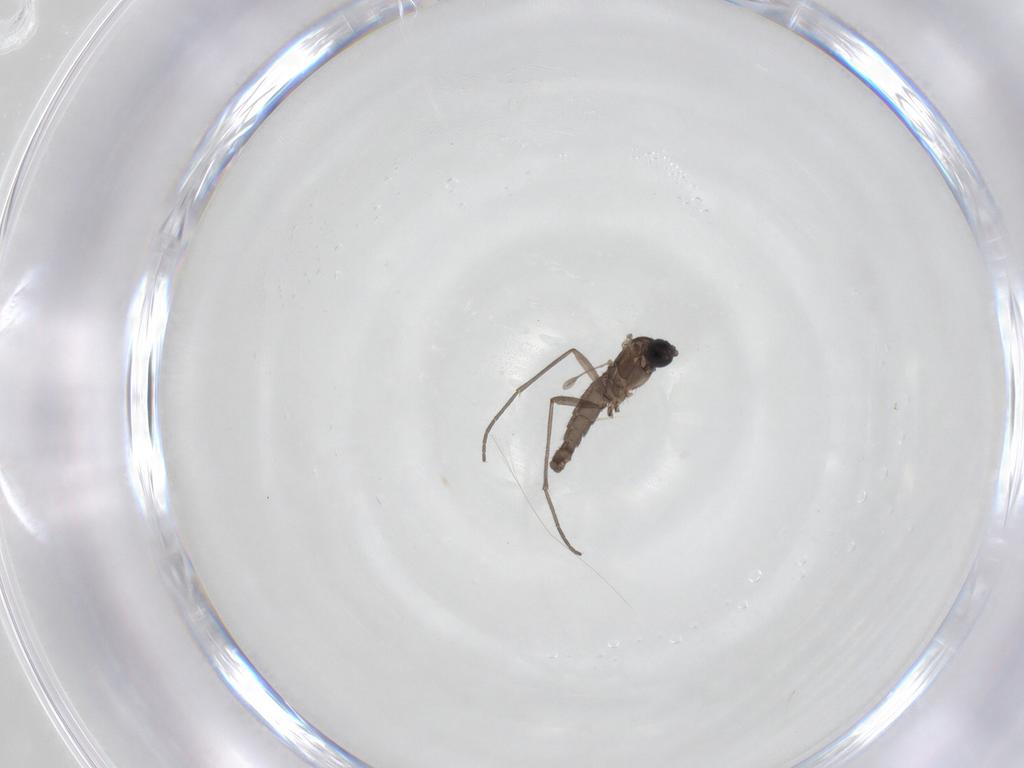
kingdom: Animalia
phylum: Arthropoda
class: Insecta
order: Diptera
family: Sciaridae
